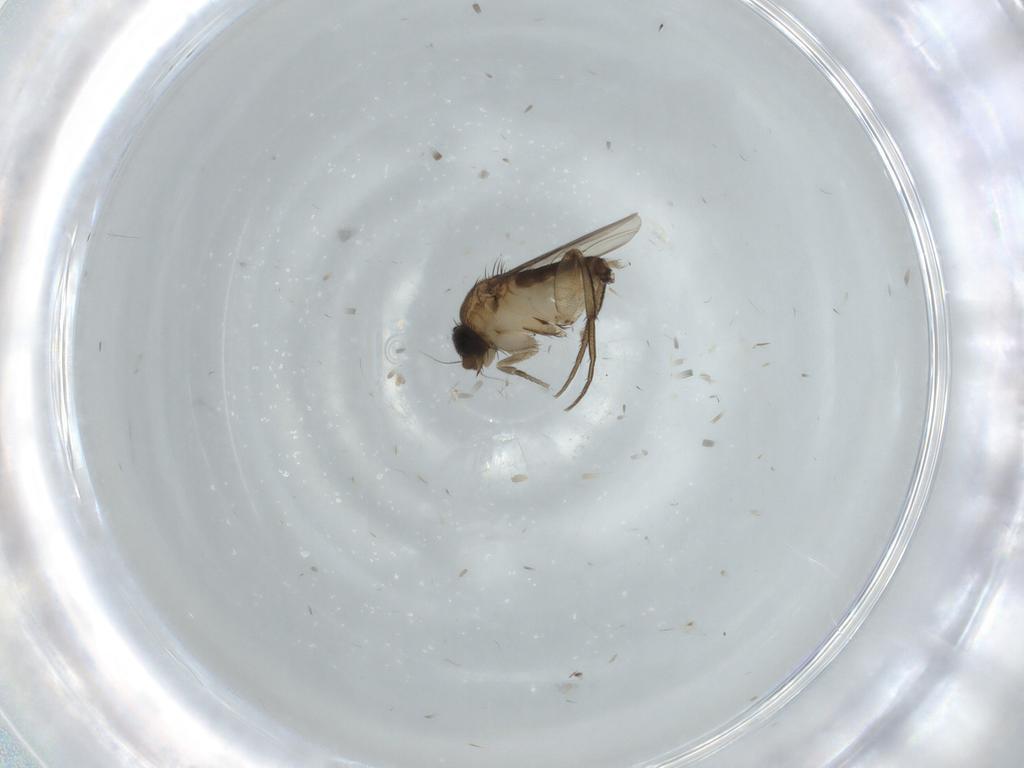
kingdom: Animalia
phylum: Arthropoda
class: Insecta
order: Diptera
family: Phoridae
